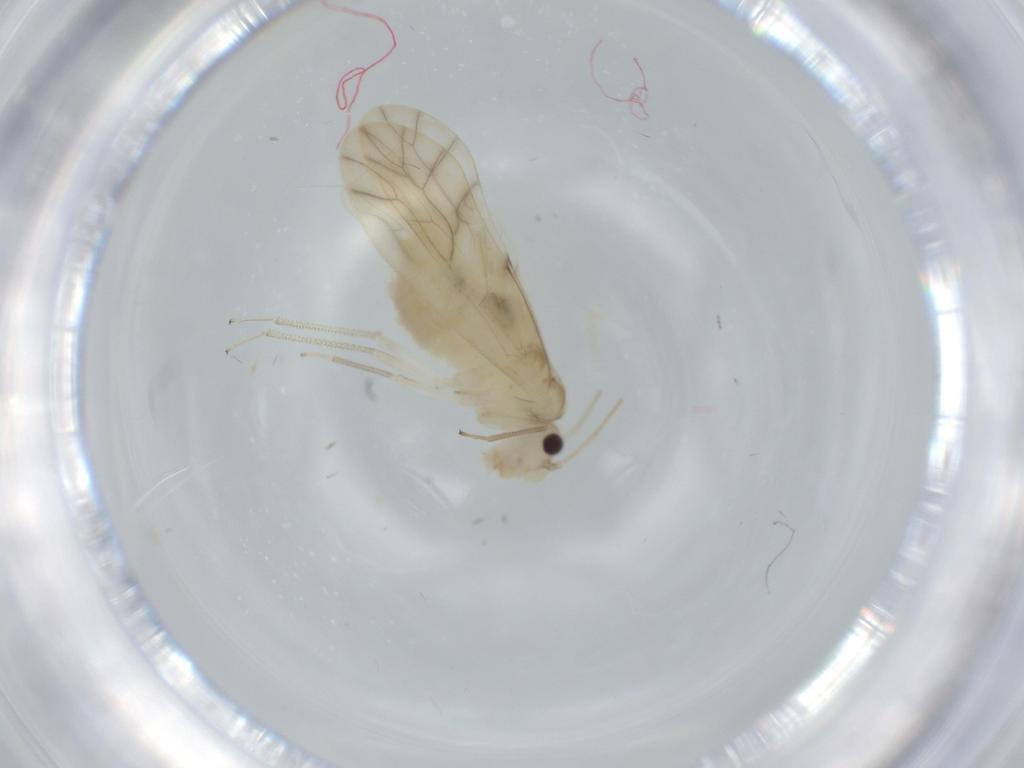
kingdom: Animalia
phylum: Arthropoda
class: Insecta
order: Psocodea
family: Caeciliusidae
